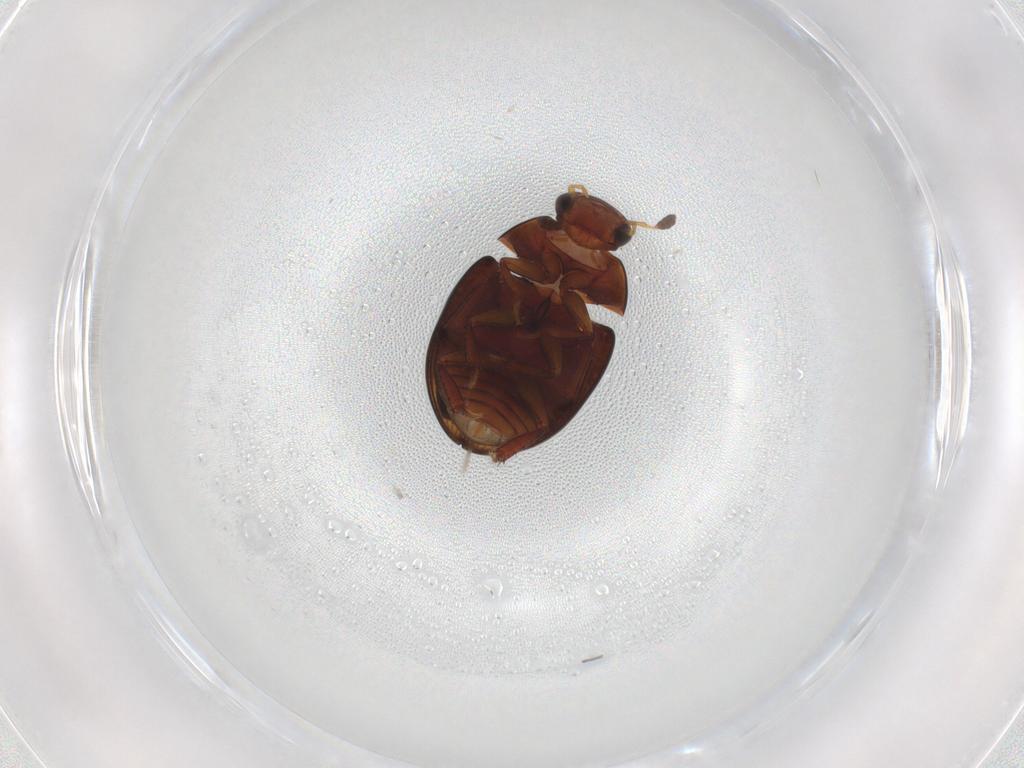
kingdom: Animalia
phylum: Arthropoda
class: Insecta
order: Coleoptera
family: Hydrophilidae
